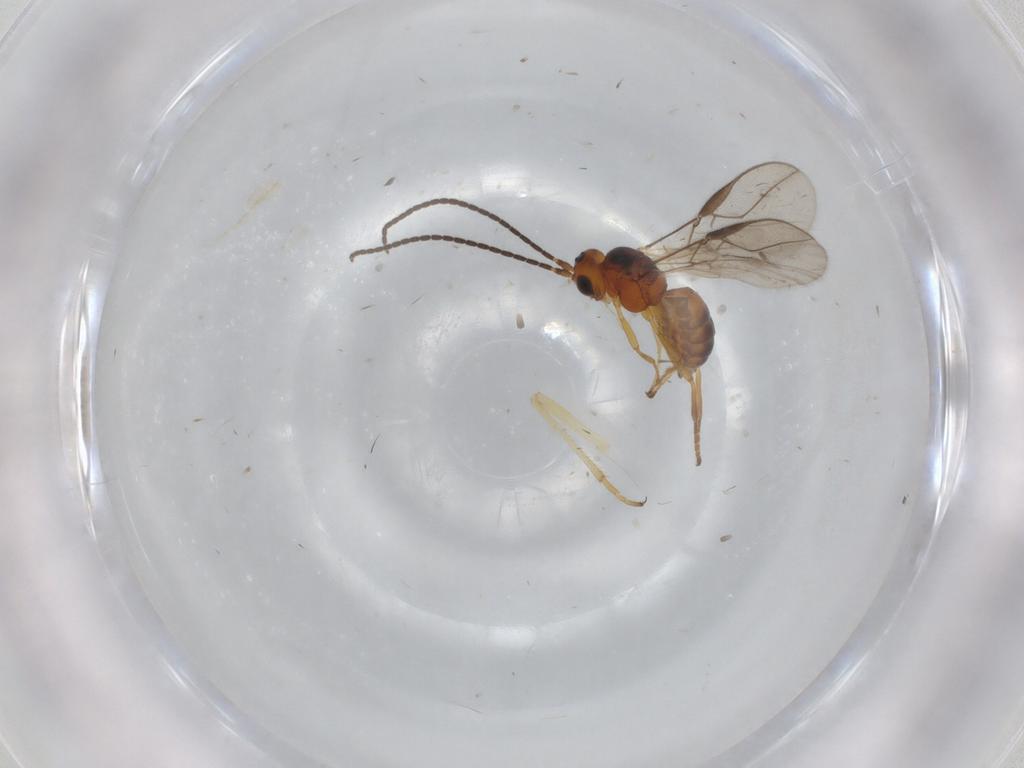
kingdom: Animalia
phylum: Arthropoda
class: Insecta
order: Hymenoptera
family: Braconidae
